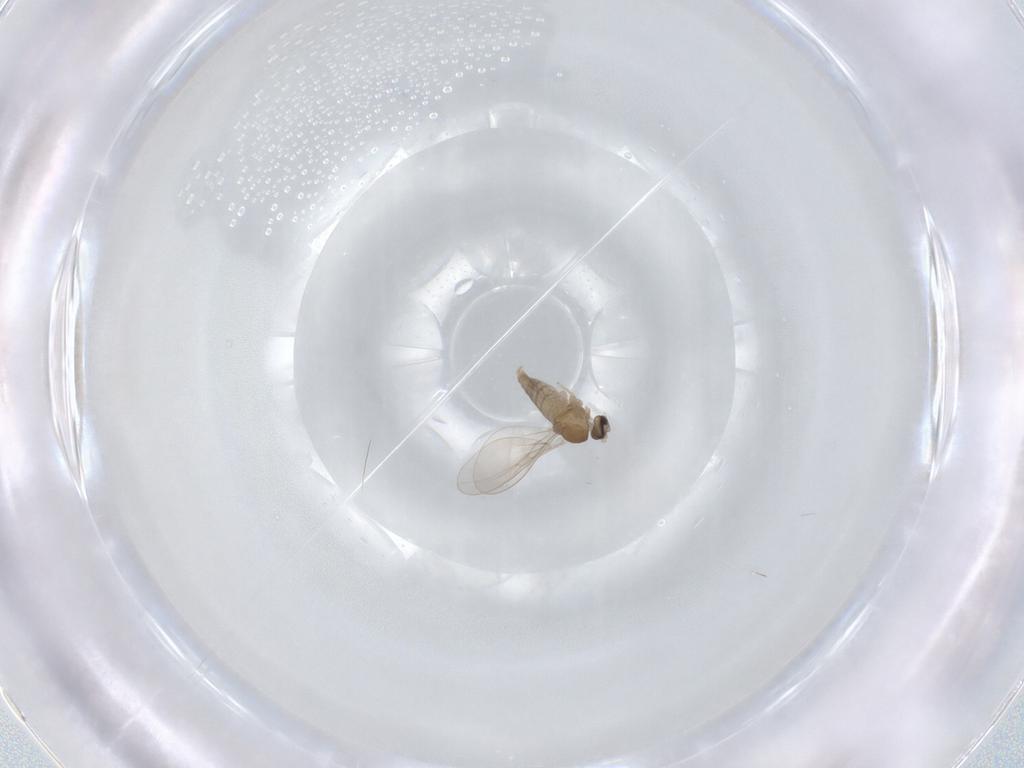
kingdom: Animalia
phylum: Arthropoda
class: Insecta
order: Diptera
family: Cecidomyiidae
